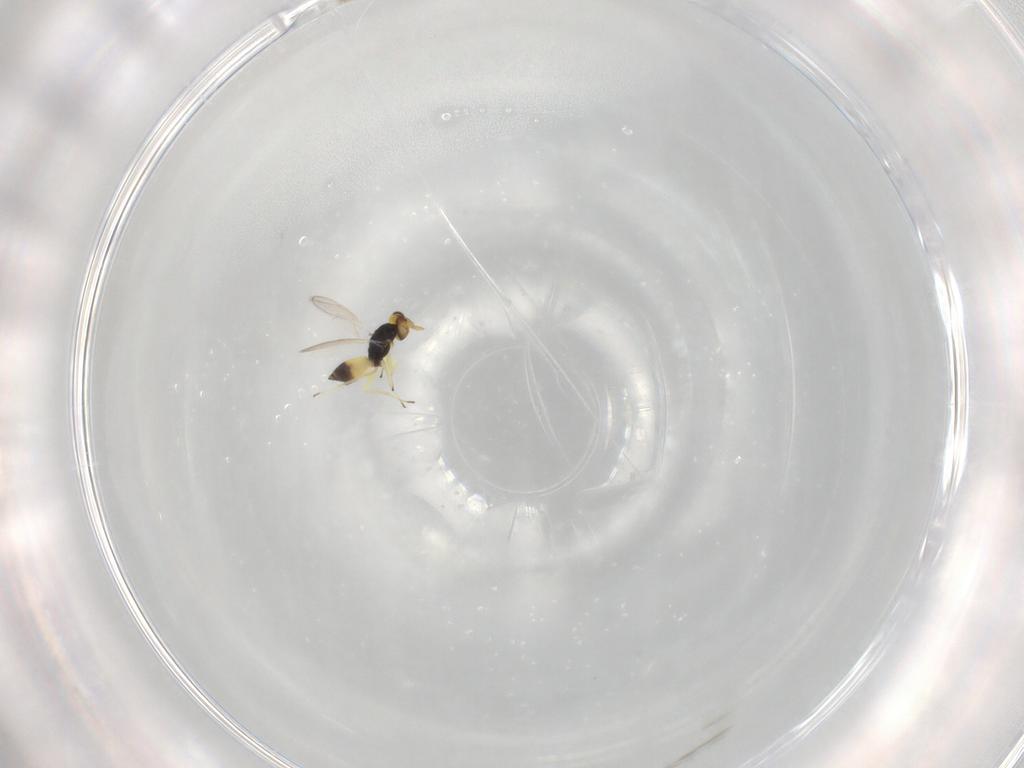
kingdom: Animalia
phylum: Arthropoda
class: Insecta
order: Hymenoptera
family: Eulophidae
